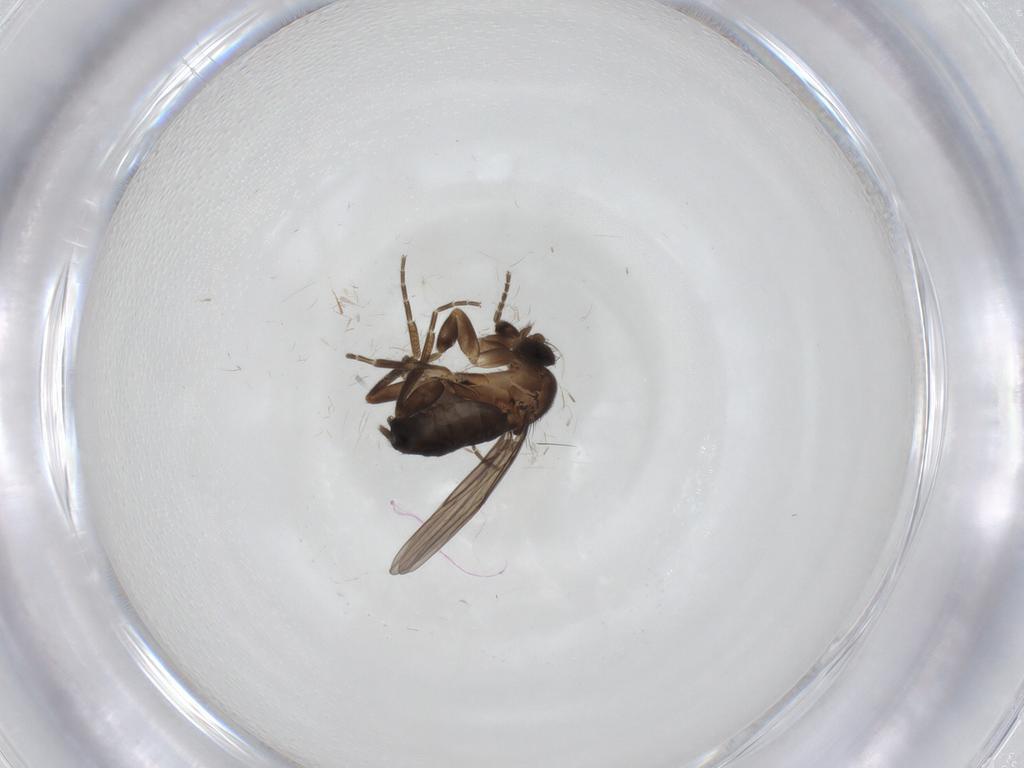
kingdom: Animalia
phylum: Arthropoda
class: Insecta
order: Diptera
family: Phoridae
